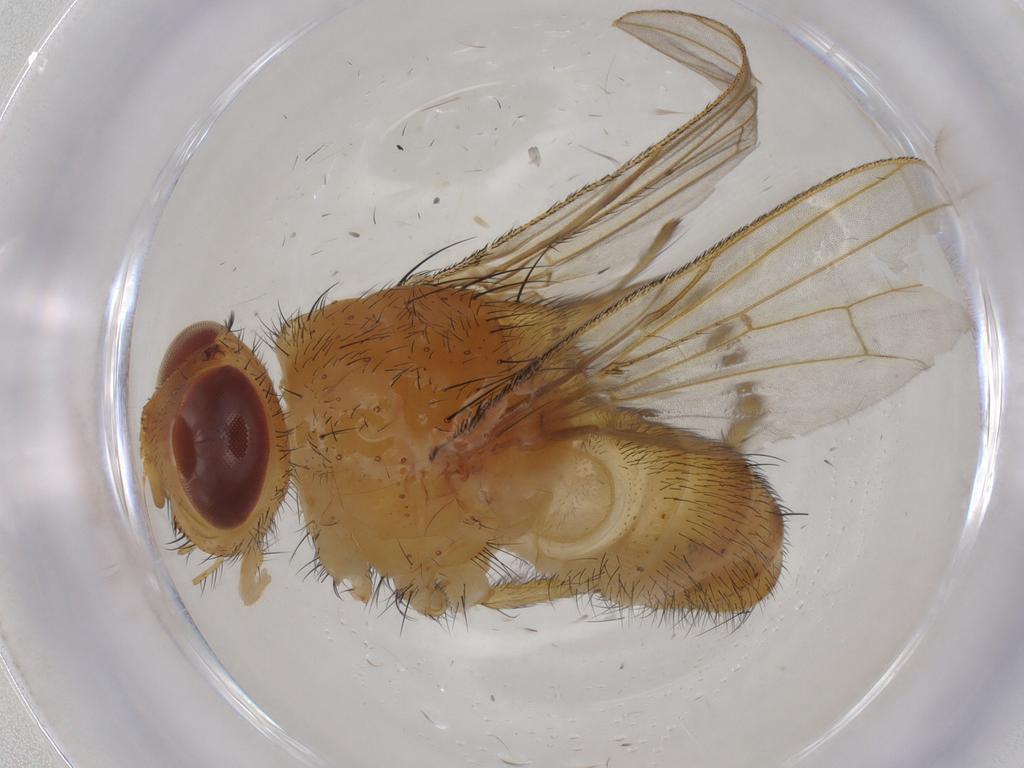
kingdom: Animalia
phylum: Arthropoda
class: Insecta
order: Diptera
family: Tachinidae
